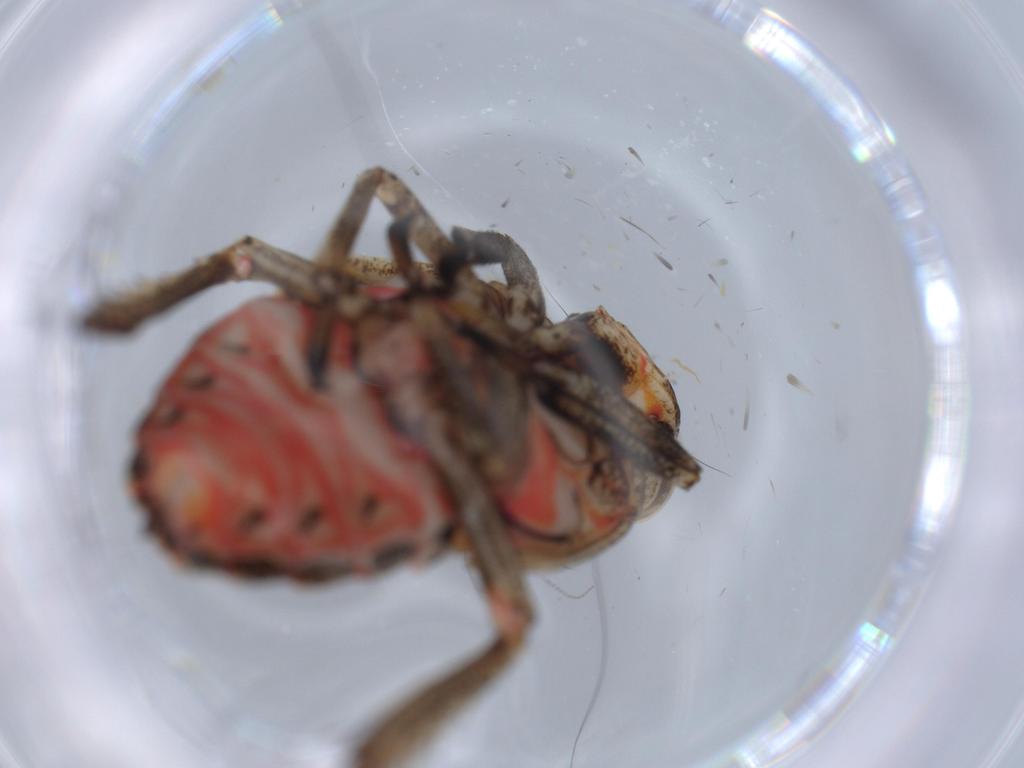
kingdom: Animalia
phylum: Arthropoda
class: Insecta
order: Hemiptera
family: Issidae
